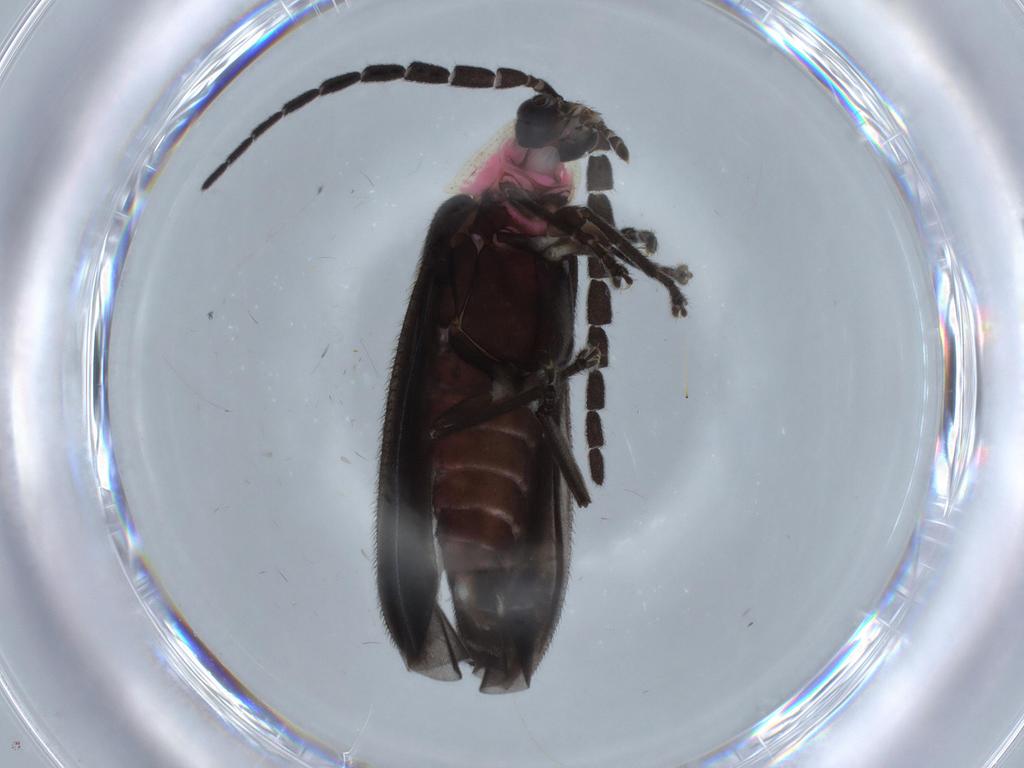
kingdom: Animalia
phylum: Arthropoda
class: Insecta
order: Coleoptera
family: Lampyridae
